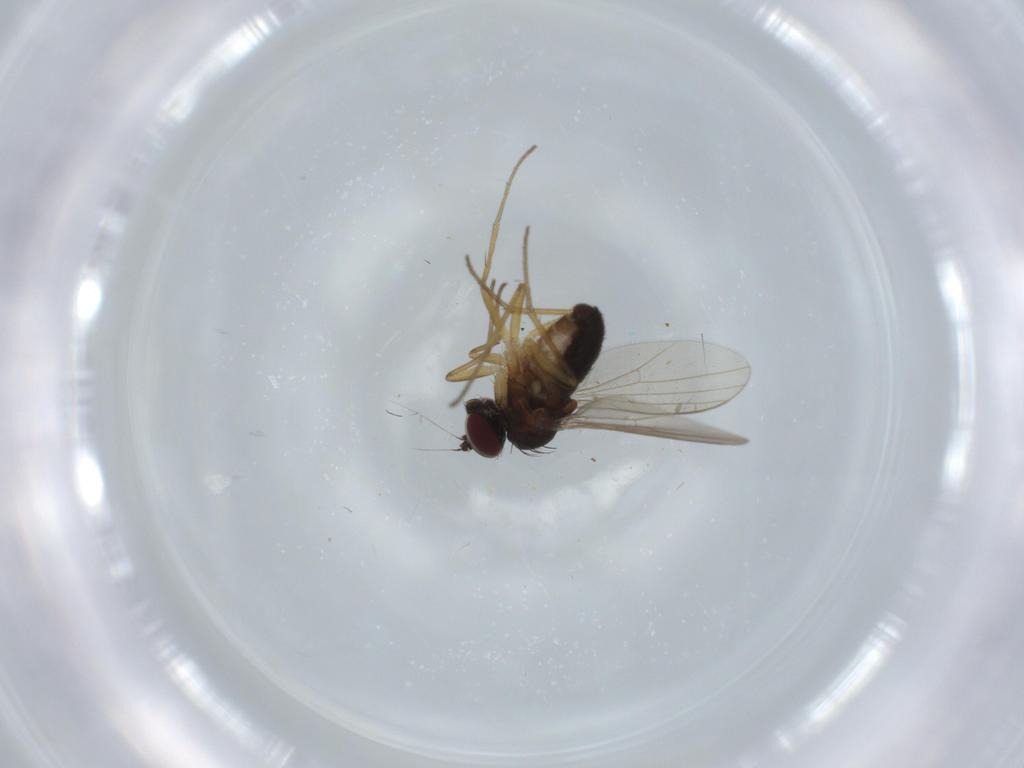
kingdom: Animalia
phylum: Arthropoda
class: Insecta
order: Diptera
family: Dolichopodidae
